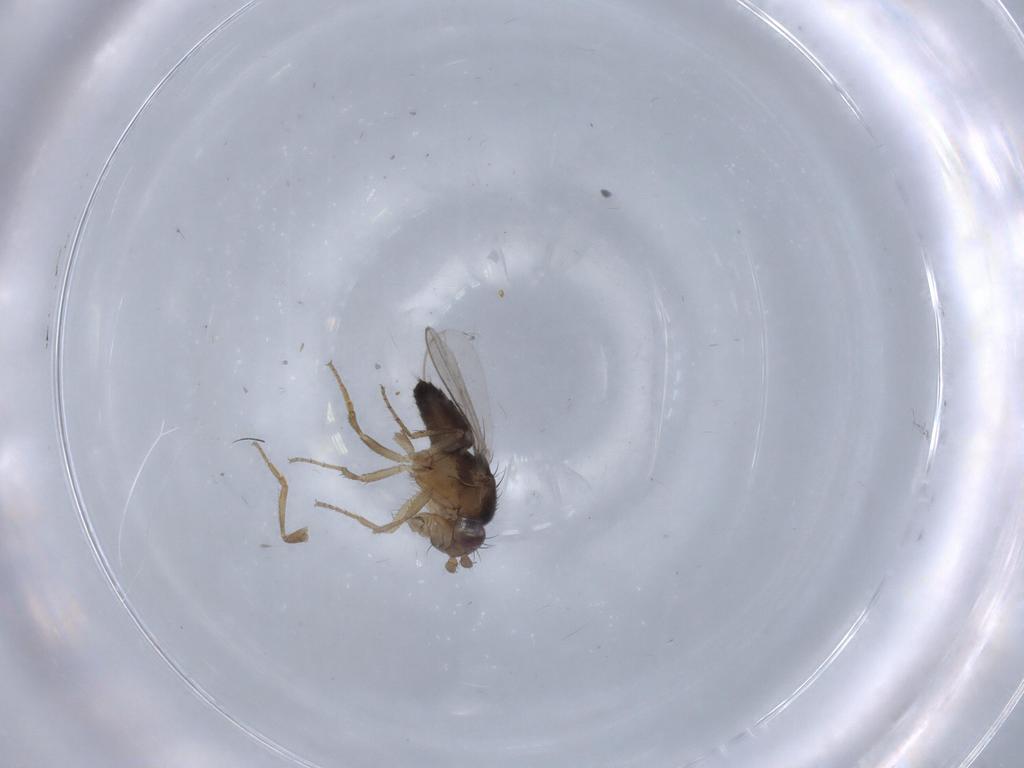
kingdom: Animalia
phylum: Arthropoda
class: Insecta
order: Diptera
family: Sphaeroceridae
